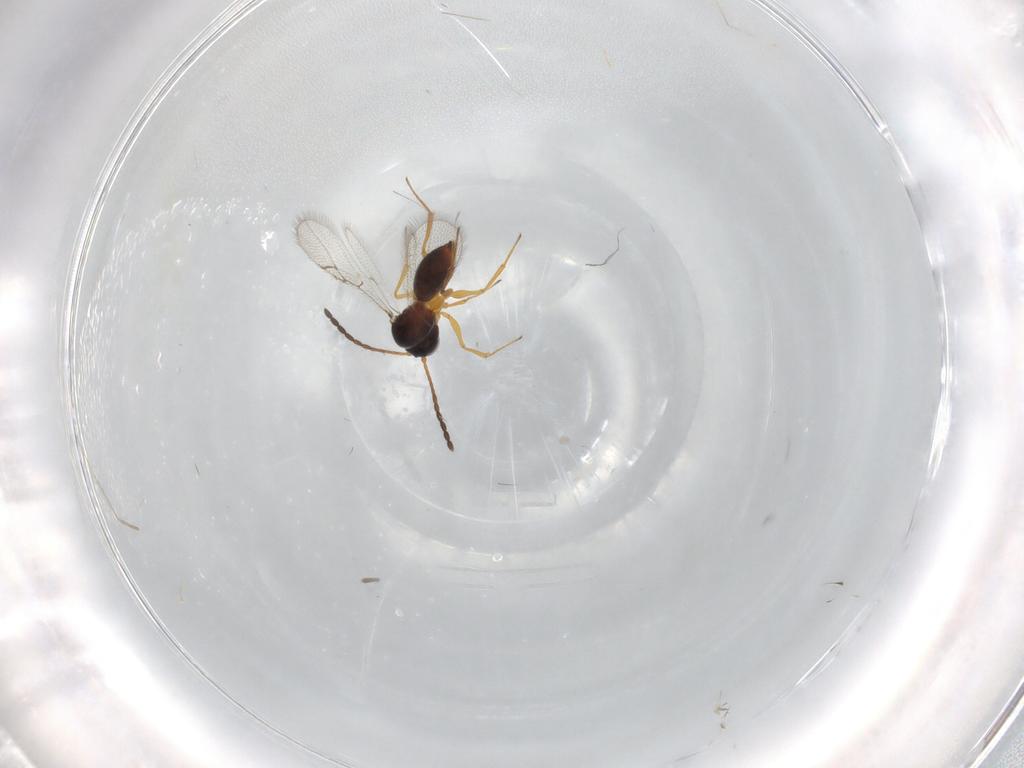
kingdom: Animalia
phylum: Arthropoda
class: Insecta
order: Hymenoptera
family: Figitidae
